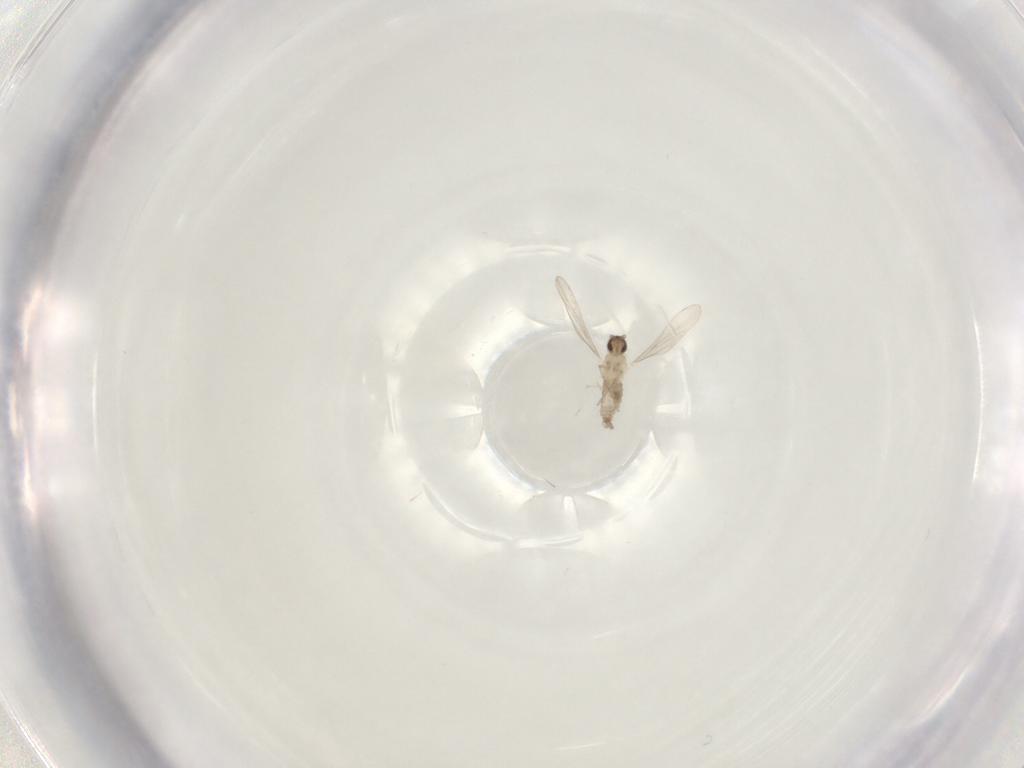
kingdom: Animalia
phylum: Arthropoda
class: Insecta
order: Diptera
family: Cecidomyiidae
